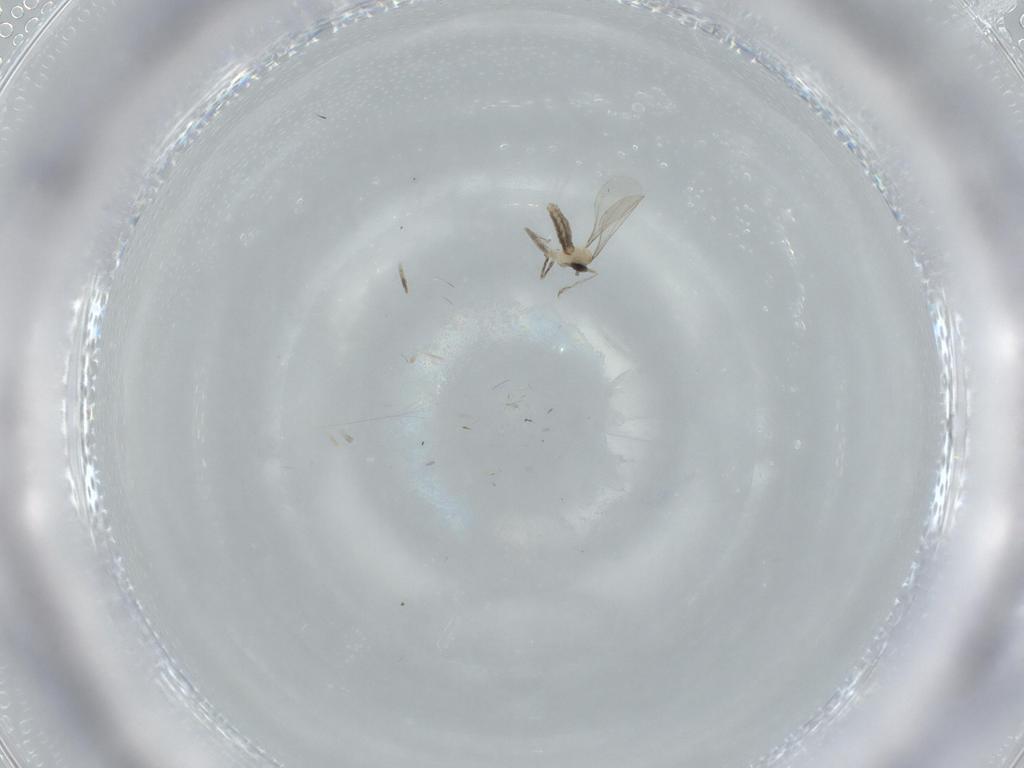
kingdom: Animalia
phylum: Arthropoda
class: Insecta
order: Diptera
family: Cecidomyiidae
